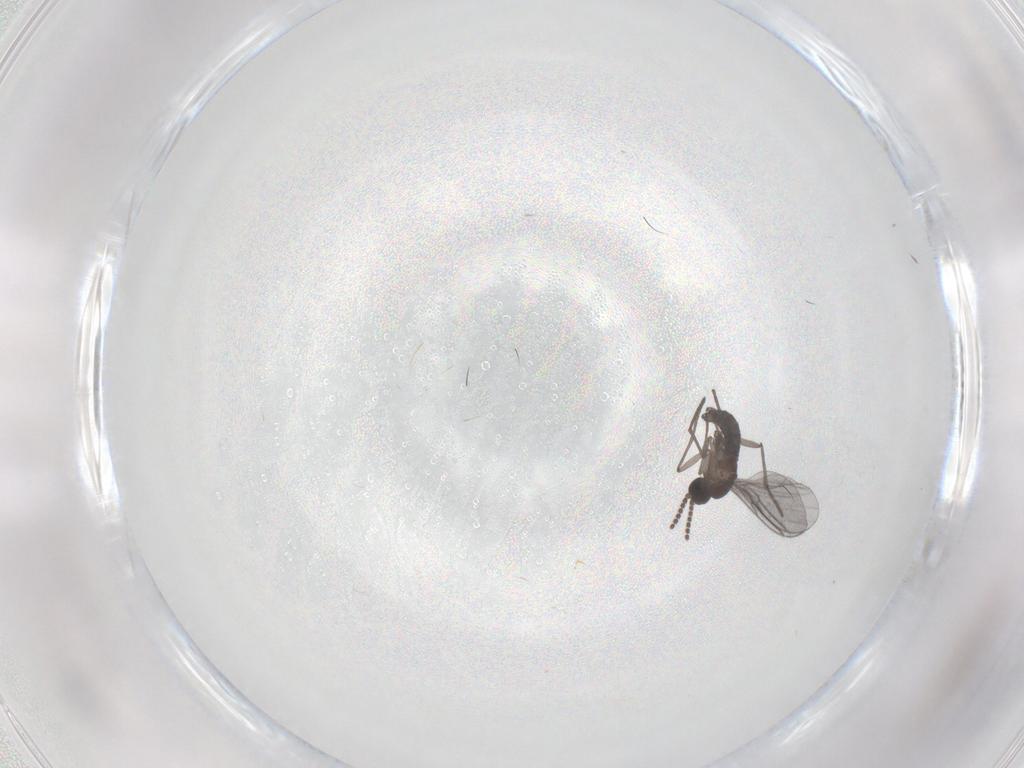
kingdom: Animalia
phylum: Arthropoda
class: Insecta
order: Diptera
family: Sciaridae
